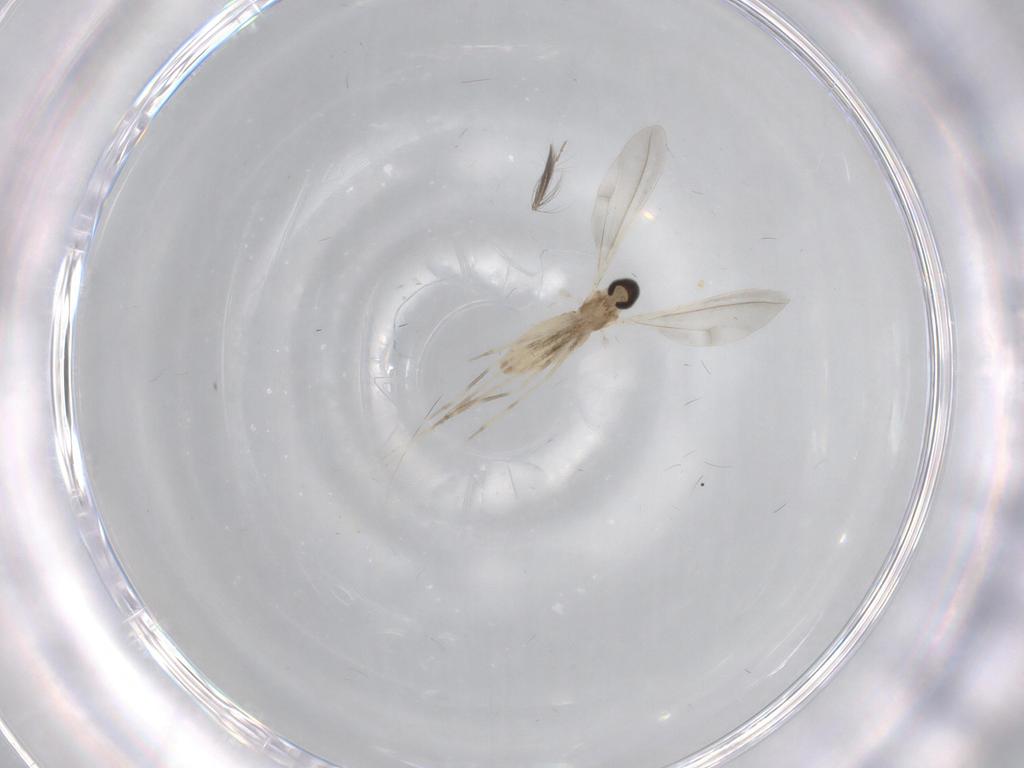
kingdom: Animalia
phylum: Arthropoda
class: Insecta
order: Diptera
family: Cecidomyiidae
